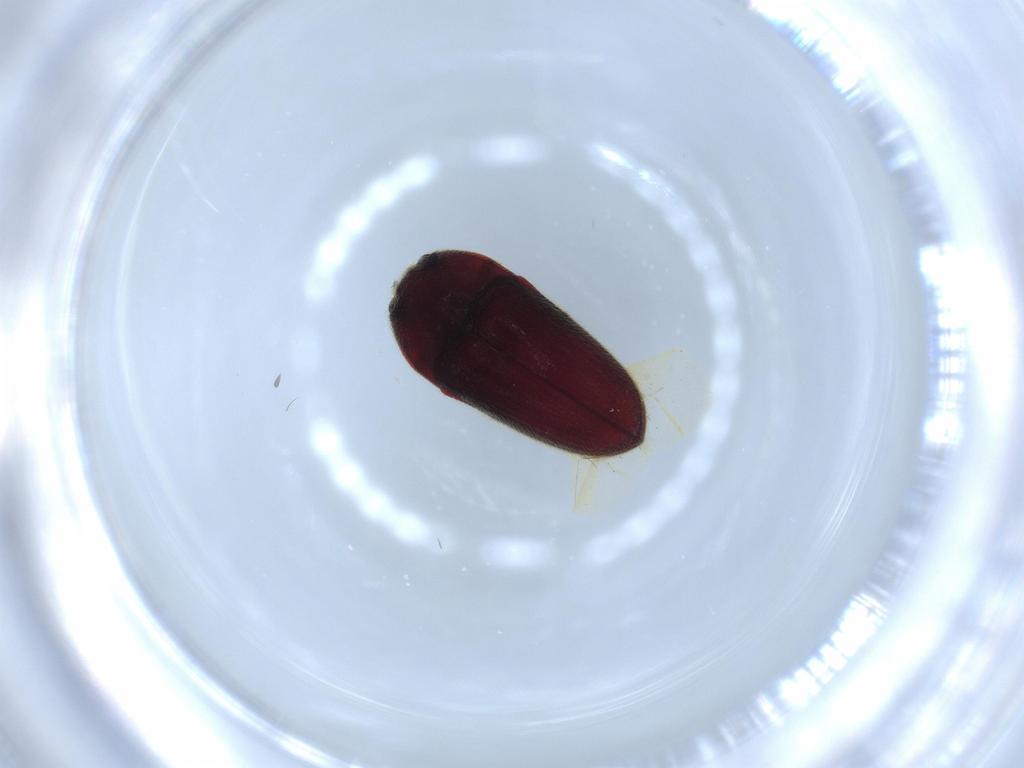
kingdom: Animalia
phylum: Arthropoda
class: Insecta
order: Coleoptera
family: Throscidae
